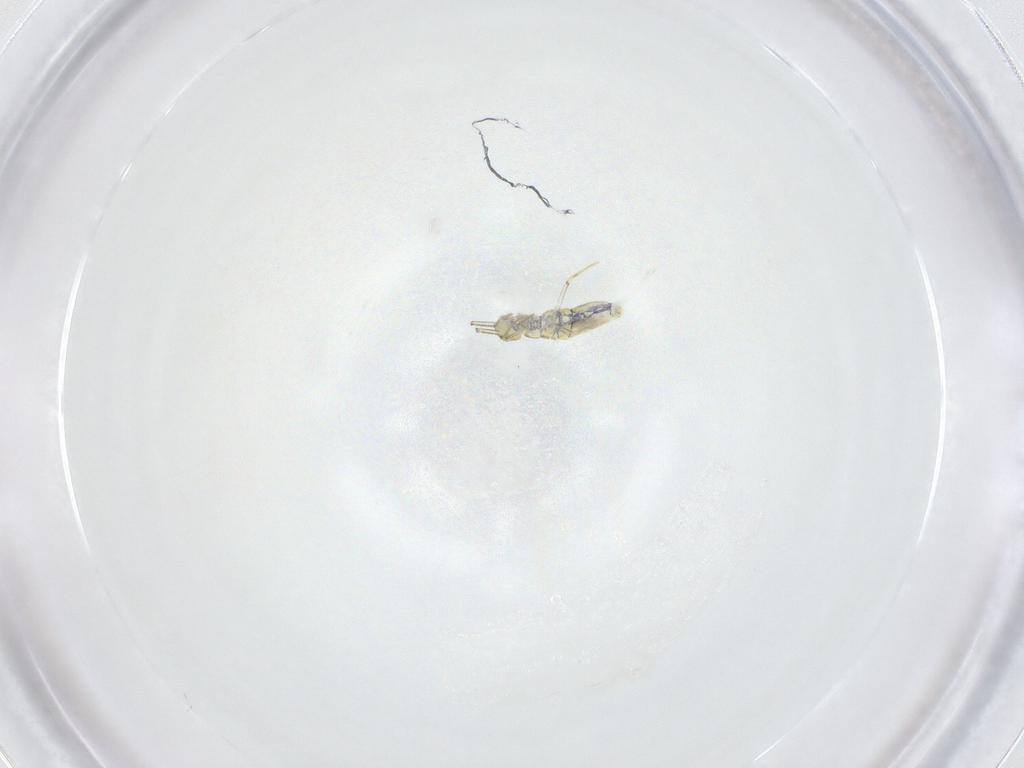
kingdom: Animalia
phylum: Arthropoda
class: Collembola
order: Entomobryomorpha
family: Paronellidae
